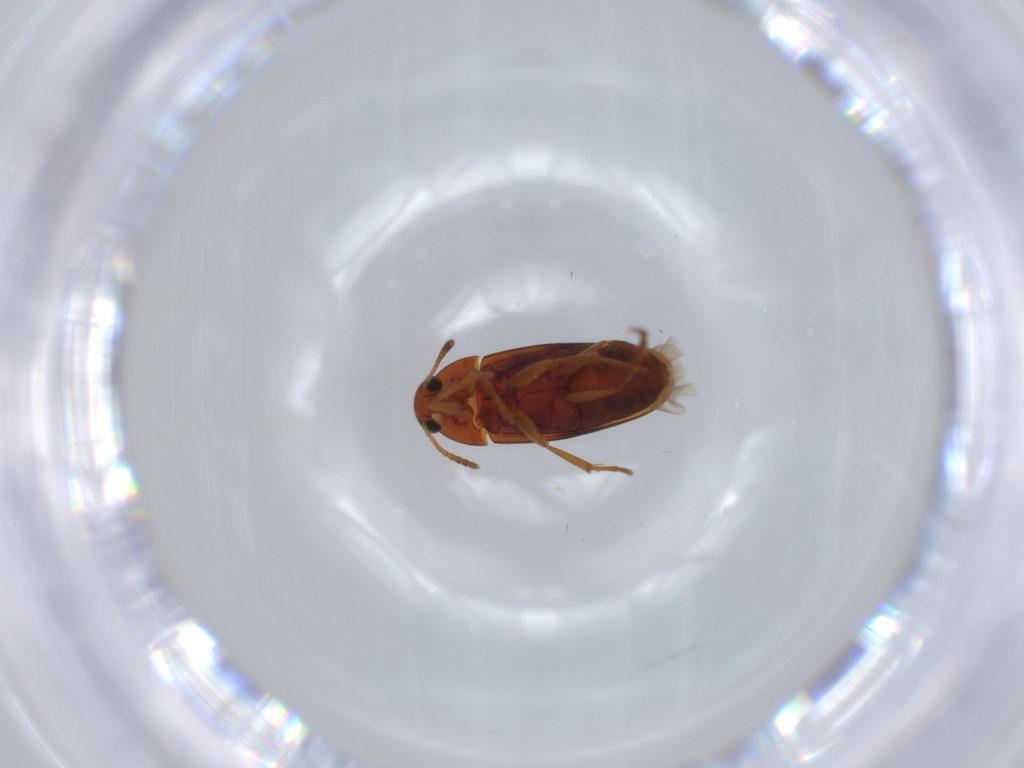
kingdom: Animalia
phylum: Arthropoda
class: Insecta
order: Coleoptera
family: Scraptiidae
